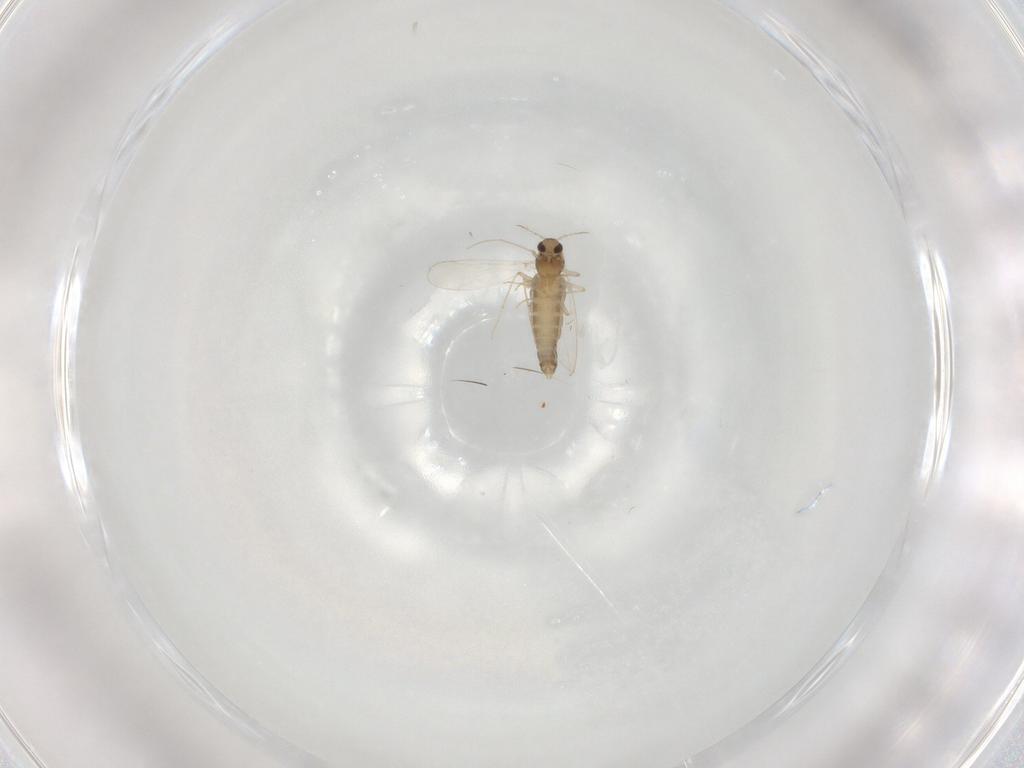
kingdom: Animalia
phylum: Arthropoda
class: Insecta
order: Diptera
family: Chironomidae
